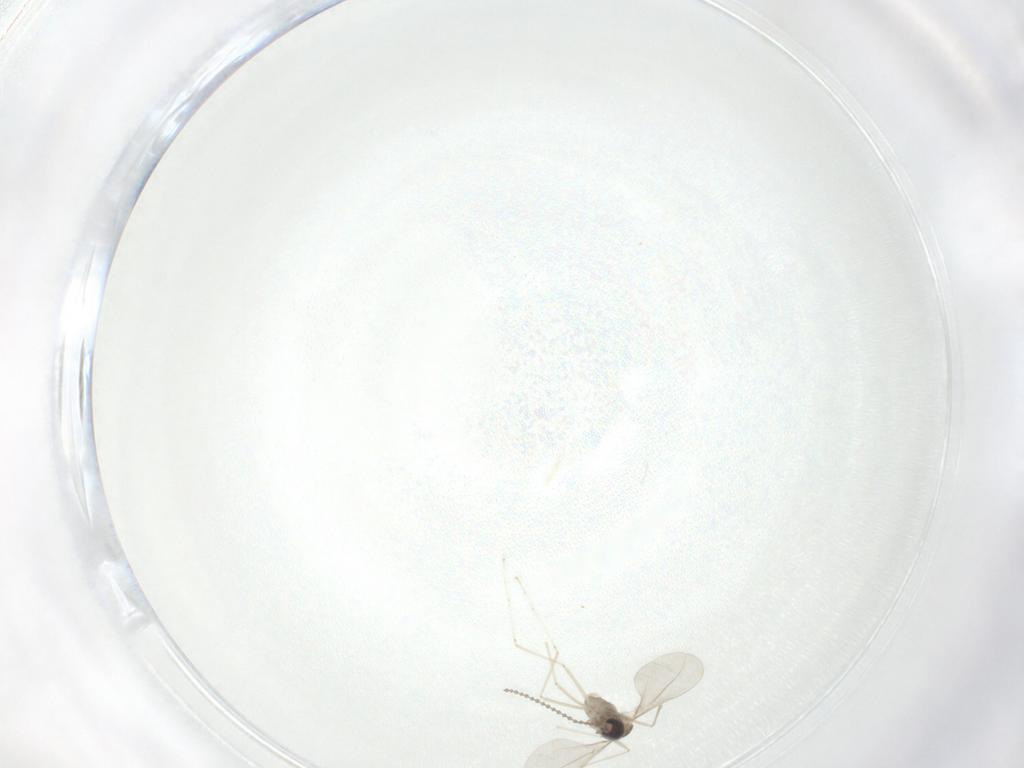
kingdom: Animalia
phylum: Arthropoda
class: Insecta
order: Diptera
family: Cecidomyiidae
